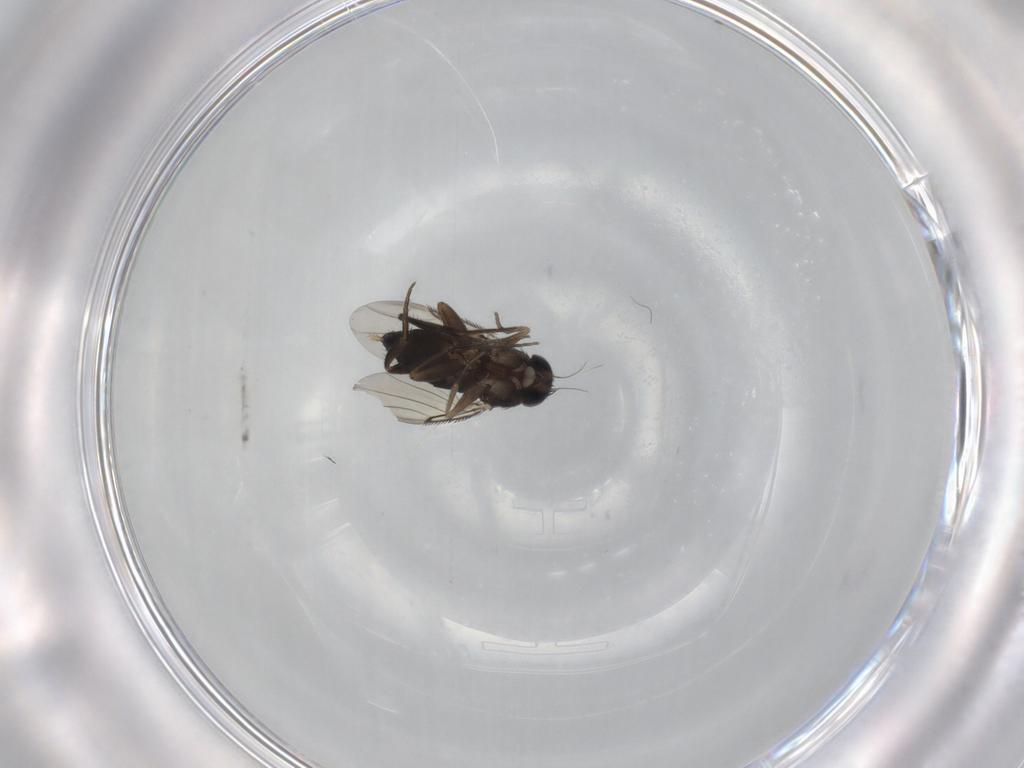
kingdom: Animalia
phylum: Arthropoda
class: Insecta
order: Diptera
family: Phoridae
